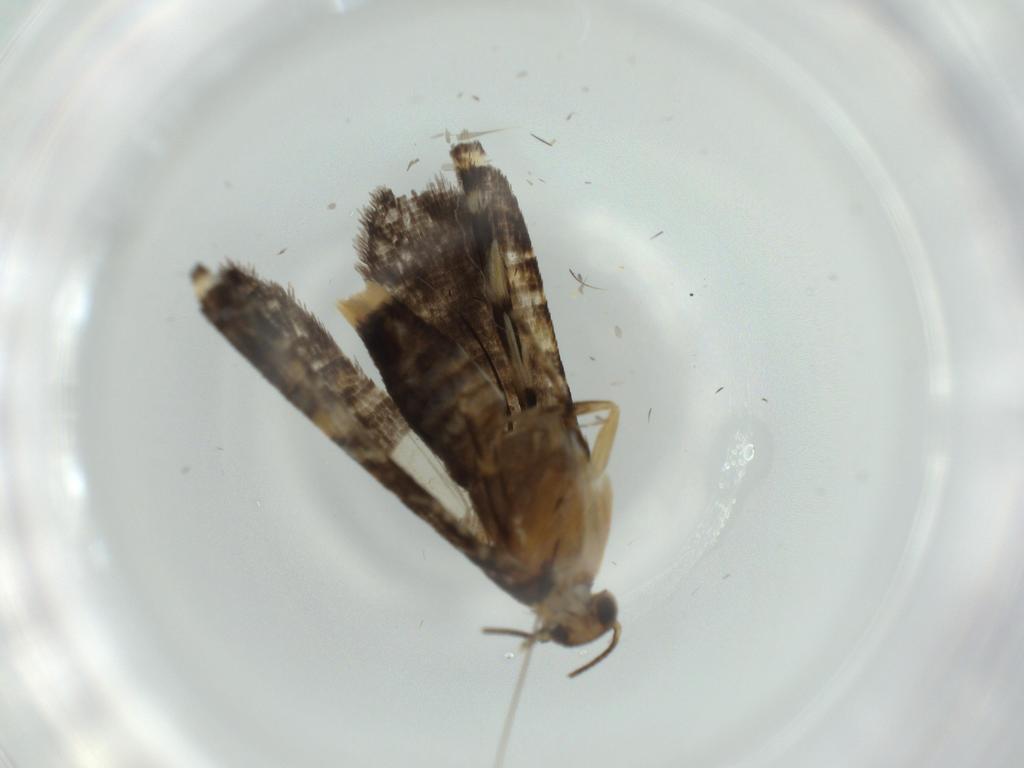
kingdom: Animalia
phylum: Arthropoda
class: Insecta
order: Lepidoptera
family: Glyphipterigidae
